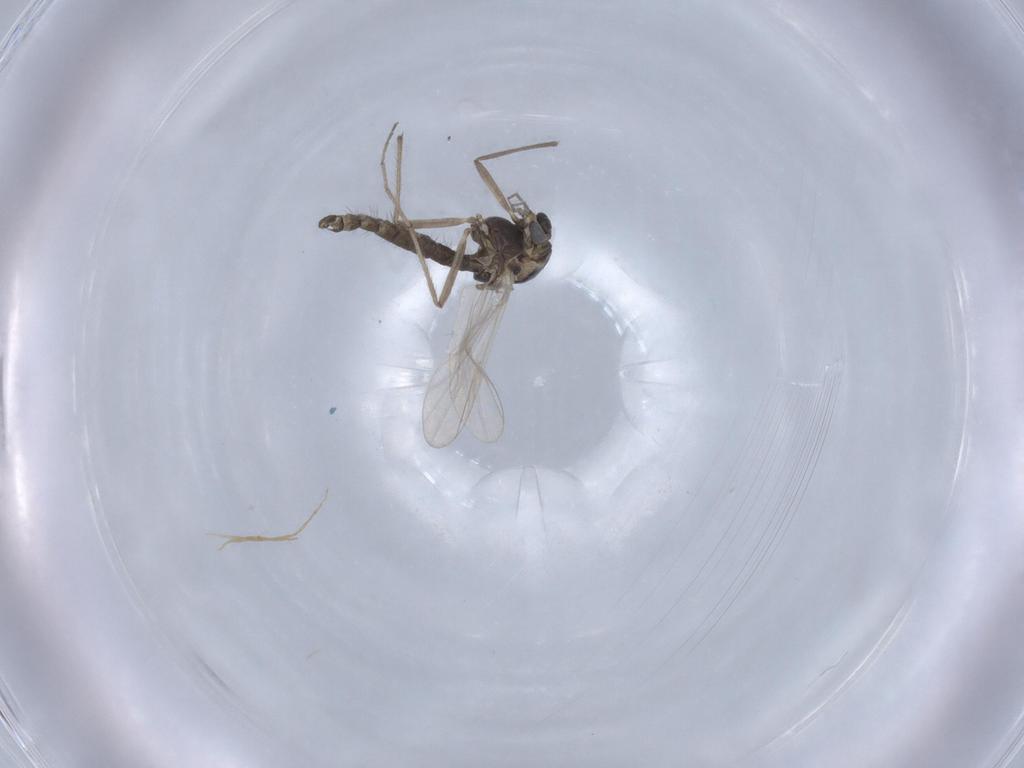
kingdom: Animalia
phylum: Arthropoda
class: Insecta
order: Diptera
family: Chironomidae
